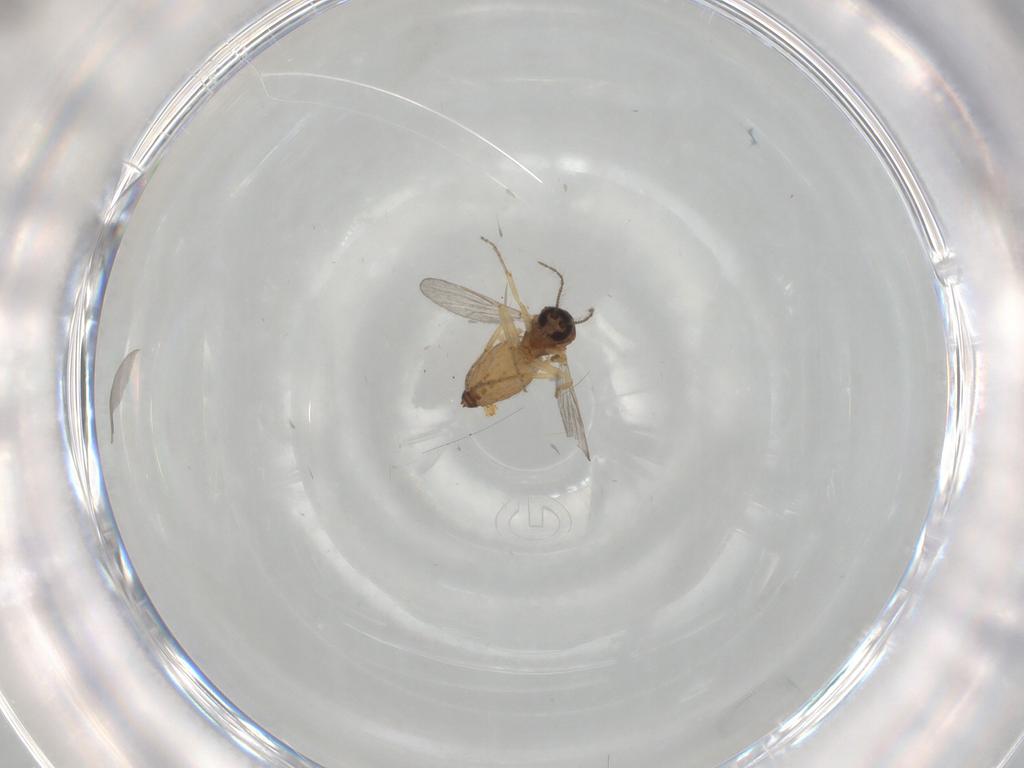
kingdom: Animalia
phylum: Arthropoda
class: Insecta
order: Diptera
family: Ceratopogonidae
